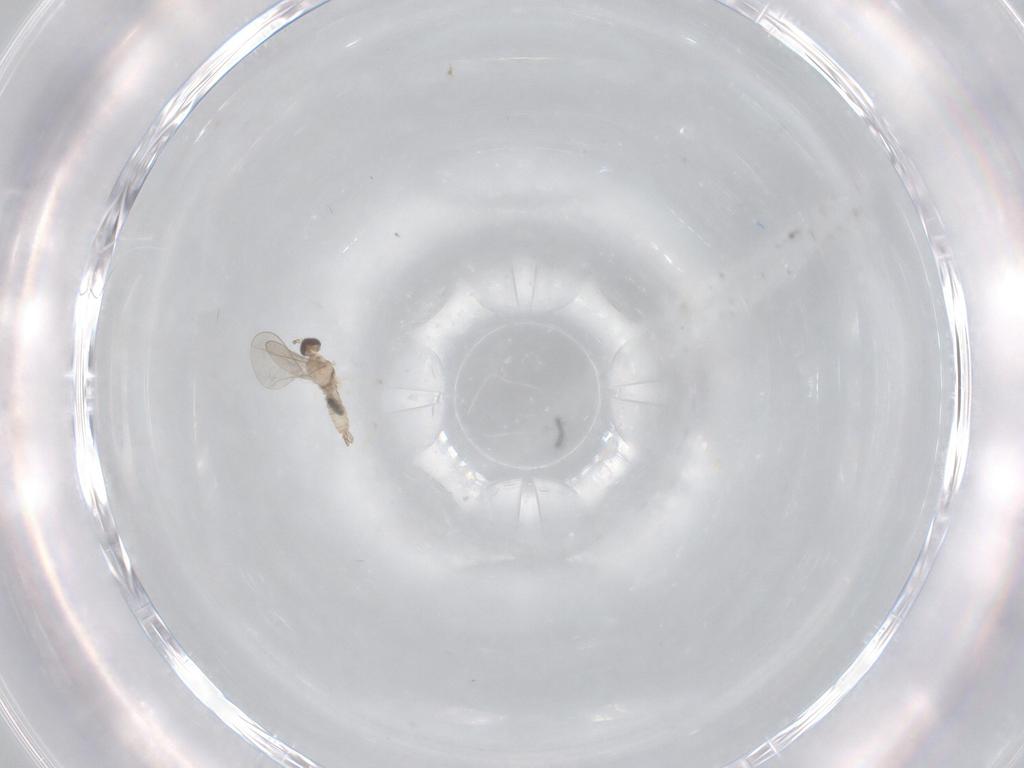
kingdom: Animalia
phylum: Arthropoda
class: Insecta
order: Diptera
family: Cecidomyiidae
